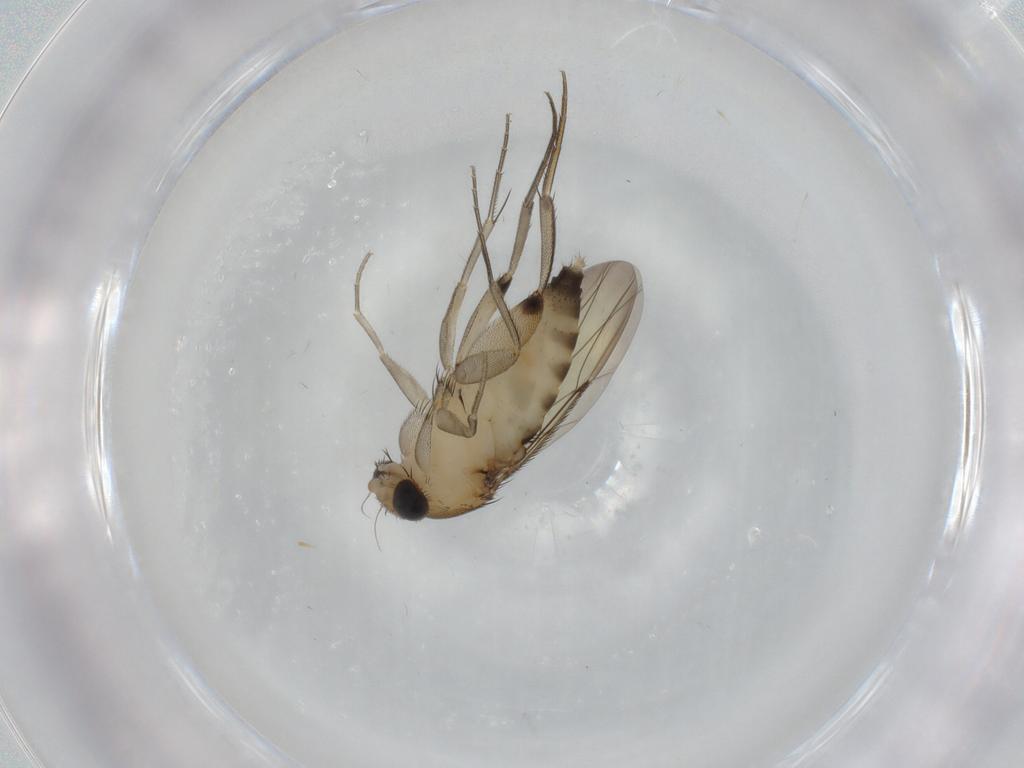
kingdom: Animalia
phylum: Arthropoda
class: Insecta
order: Diptera
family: Phoridae
